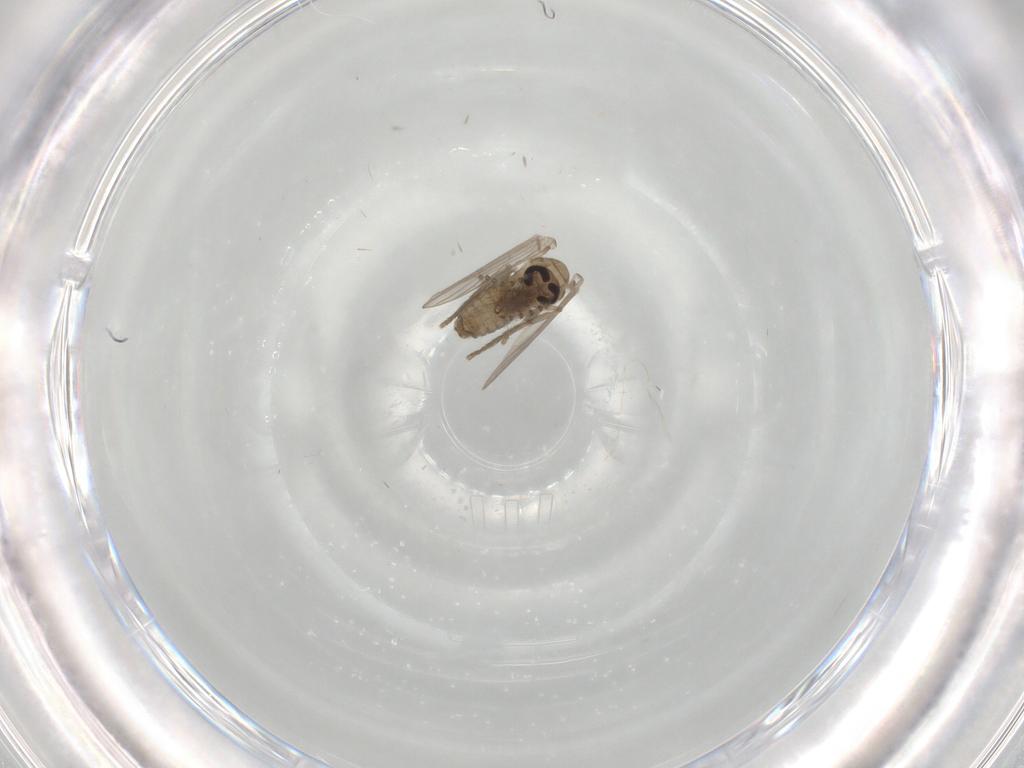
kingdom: Animalia
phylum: Arthropoda
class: Insecta
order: Diptera
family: Psychodidae
